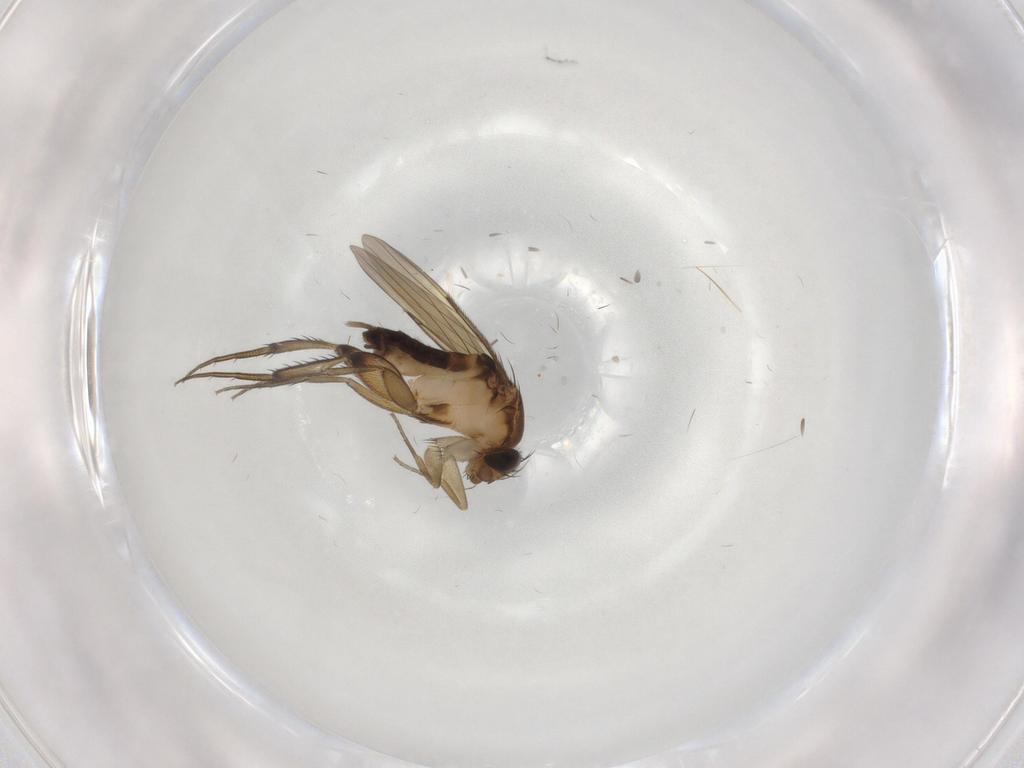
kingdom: Animalia
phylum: Arthropoda
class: Insecta
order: Diptera
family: Phoridae
